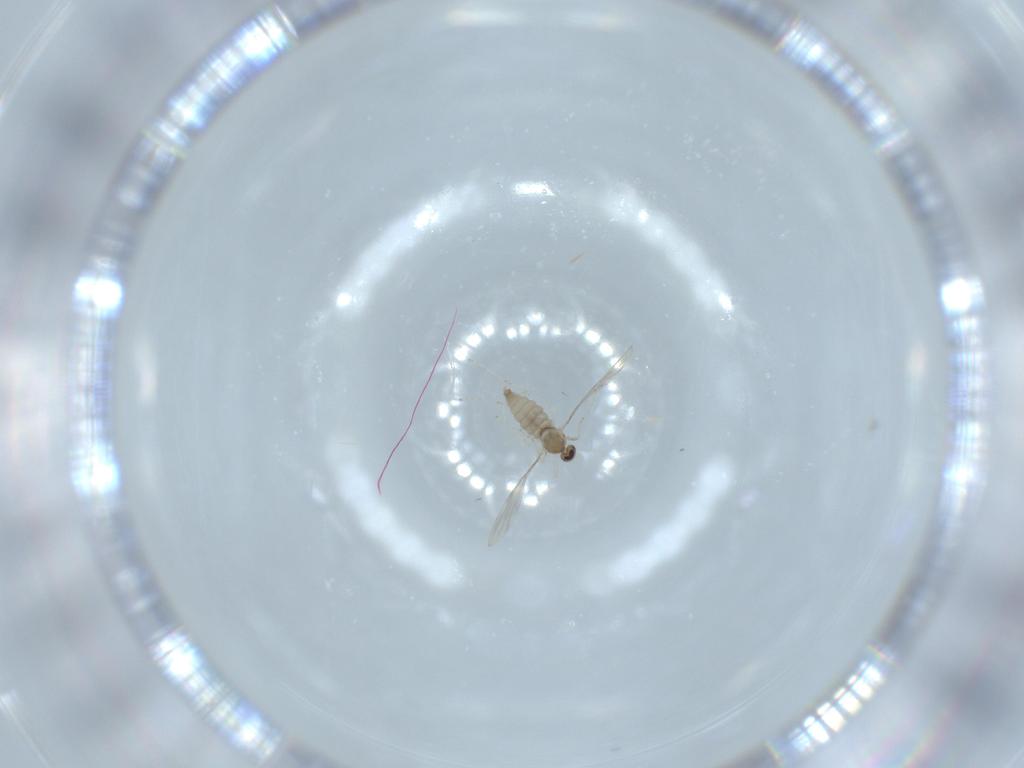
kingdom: Animalia
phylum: Arthropoda
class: Insecta
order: Diptera
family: Cecidomyiidae
